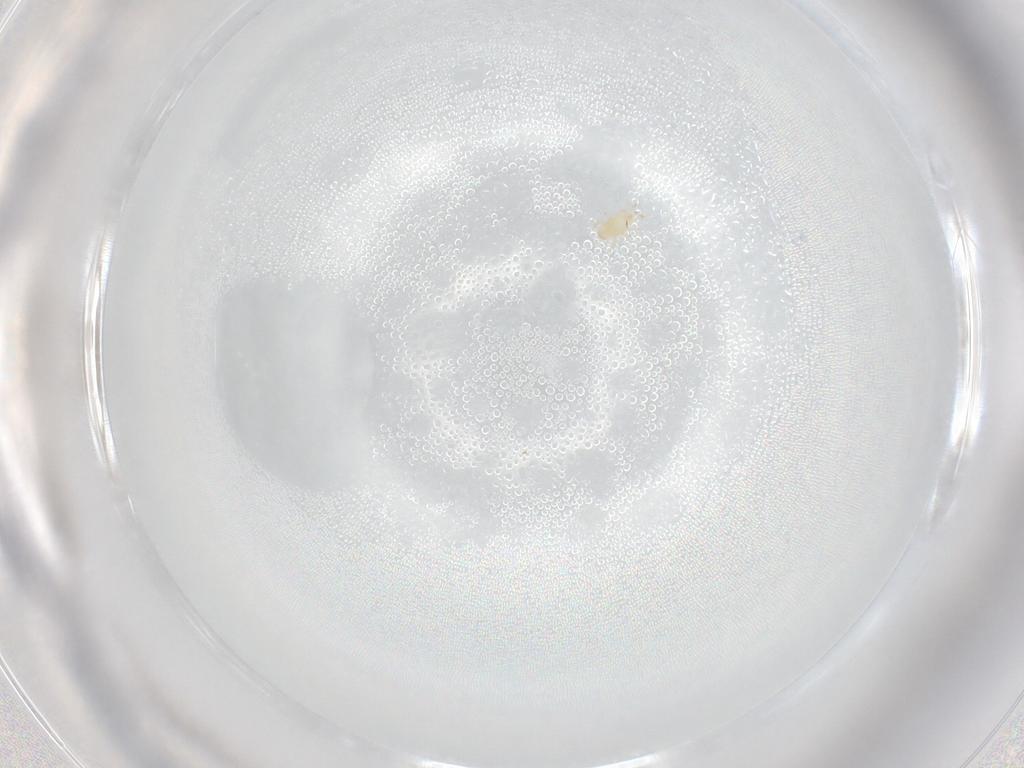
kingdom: Animalia
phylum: Arthropoda
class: Arachnida
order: Mesostigmata
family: Digamasellidae
